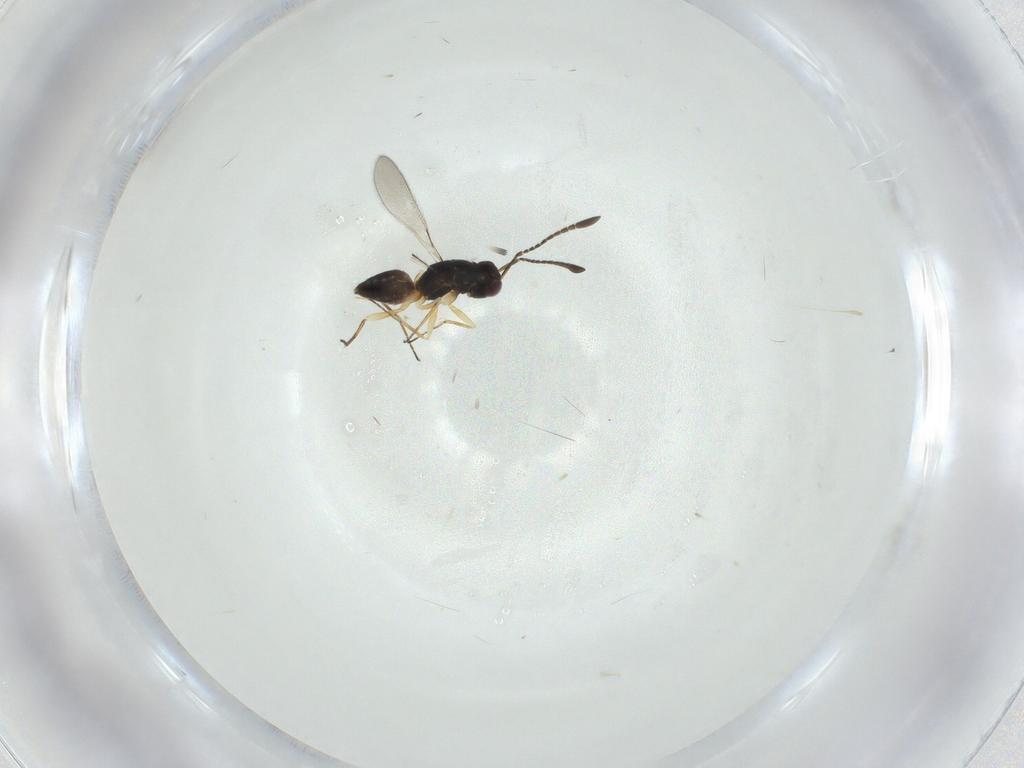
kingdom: Animalia
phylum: Arthropoda
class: Insecta
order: Hymenoptera
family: Mymaridae
